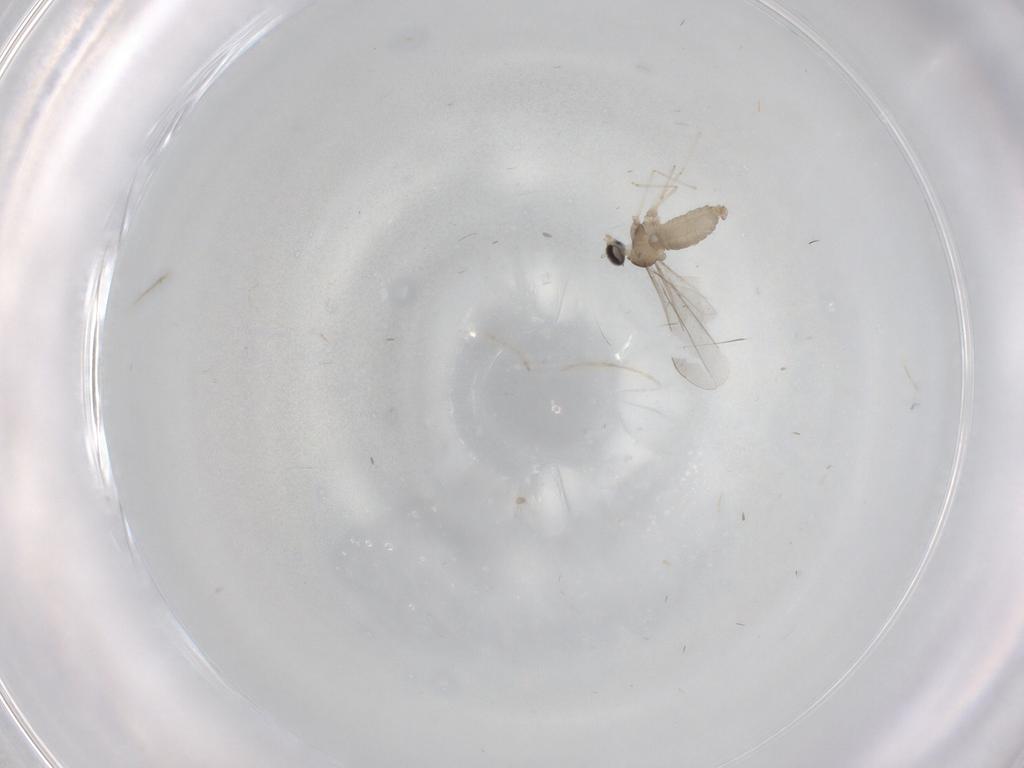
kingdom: Animalia
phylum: Arthropoda
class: Insecta
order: Diptera
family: Cecidomyiidae
